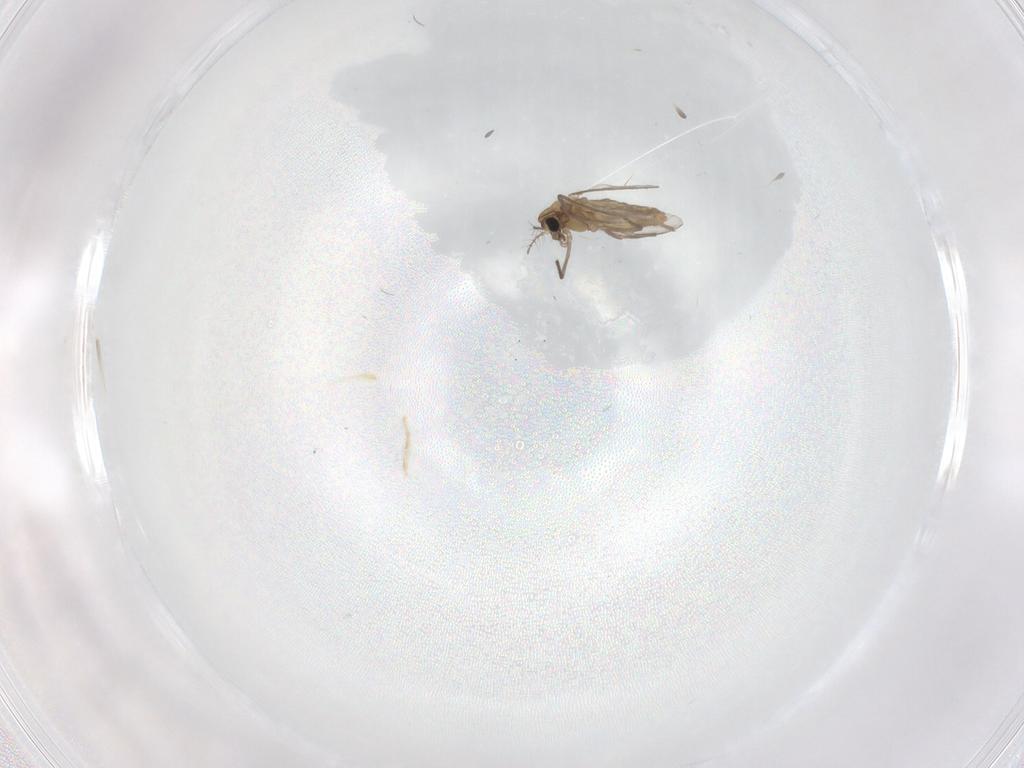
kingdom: Animalia
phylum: Arthropoda
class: Insecta
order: Diptera
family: Chironomidae
